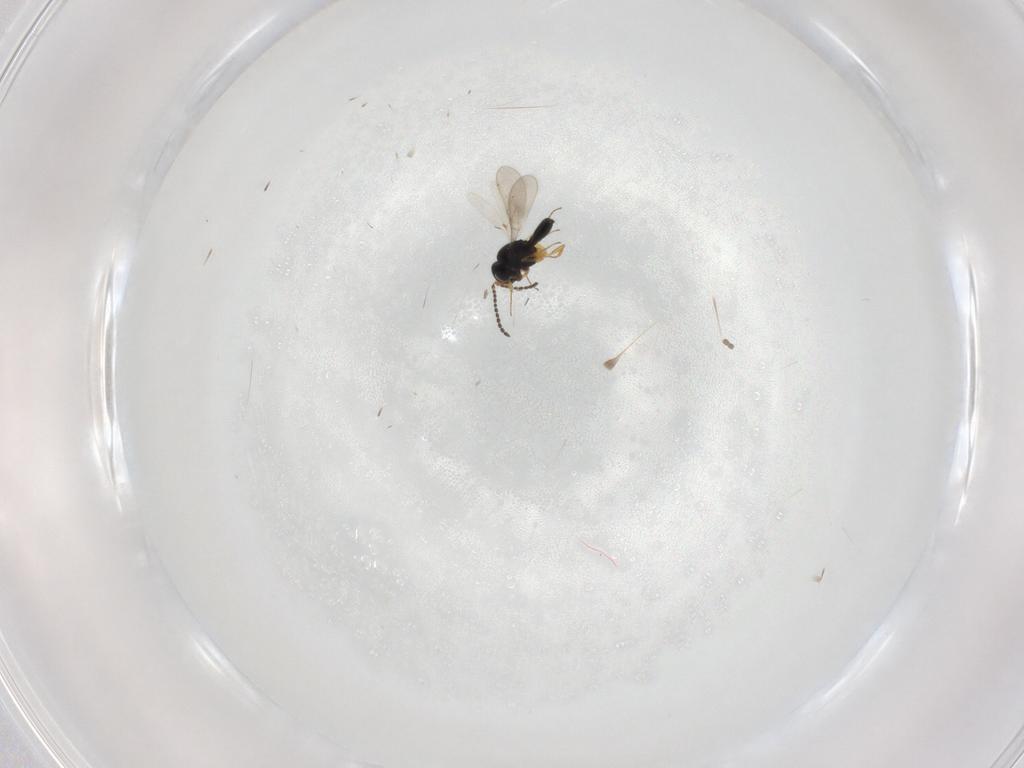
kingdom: Animalia
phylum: Arthropoda
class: Insecta
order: Hymenoptera
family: Scelionidae
